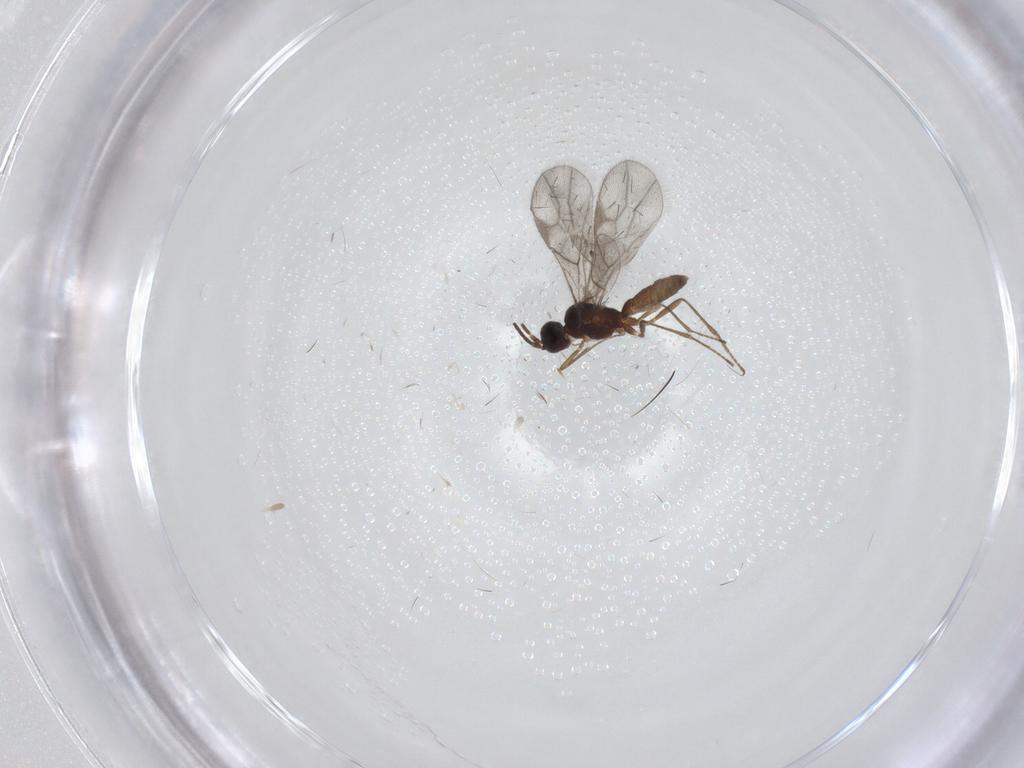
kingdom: Animalia
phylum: Arthropoda
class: Insecta
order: Hymenoptera
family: Braconidae
